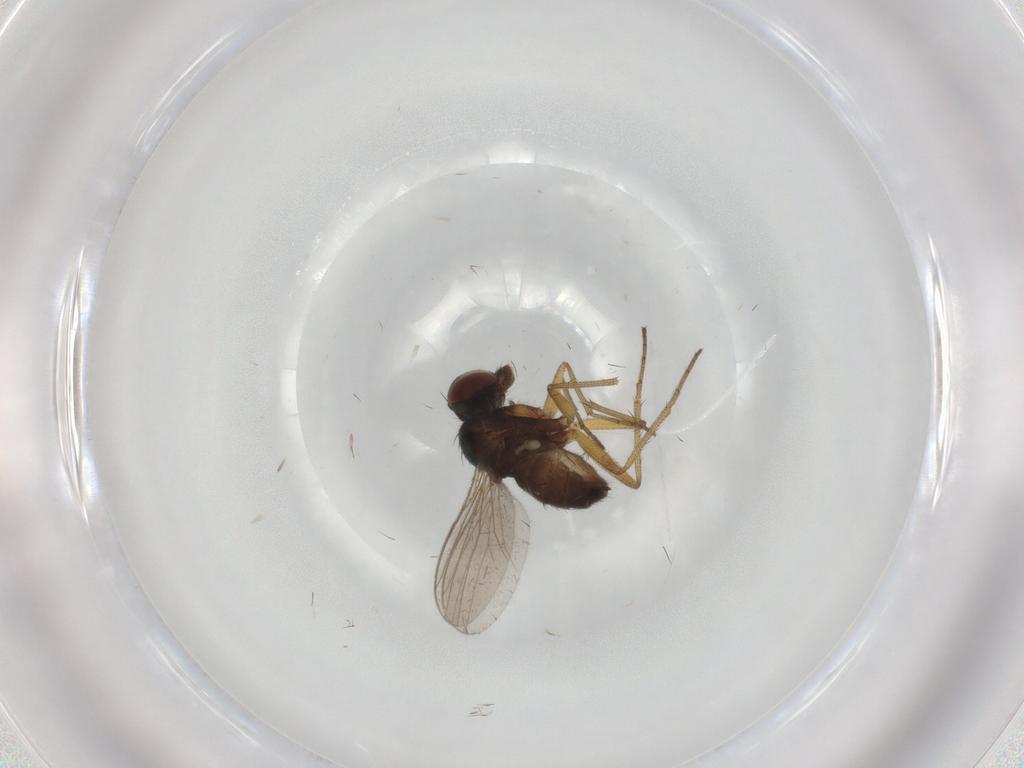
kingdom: Animalia
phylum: Arthropoda
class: Insecta
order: Diptera
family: Dolichopodidae
